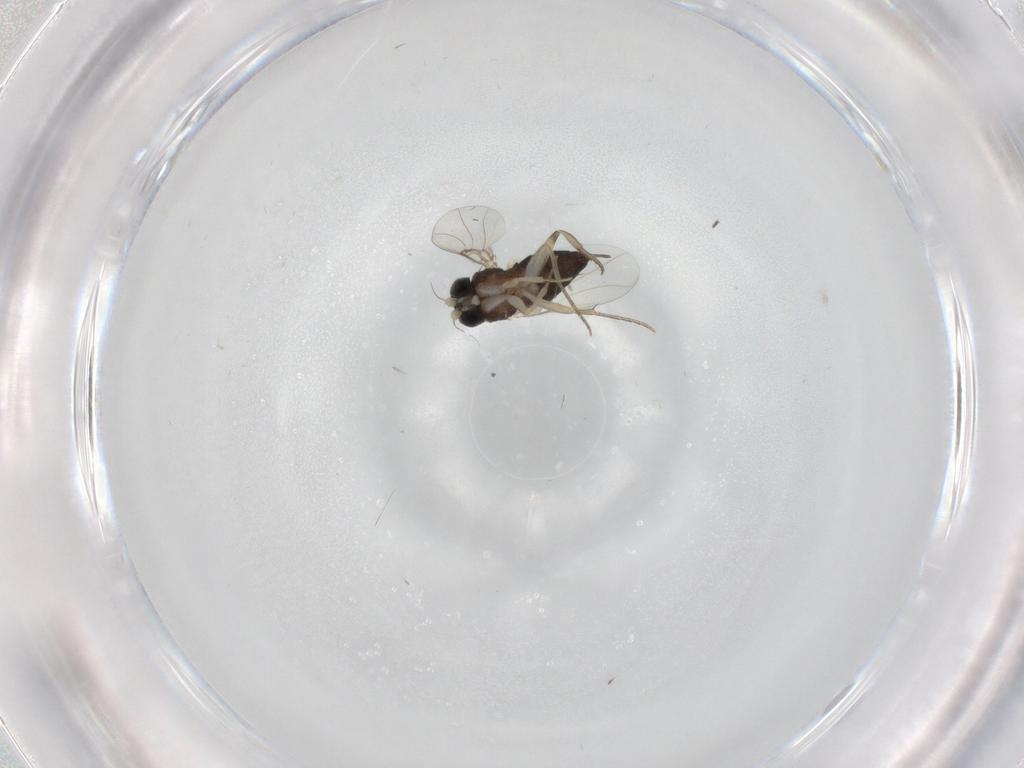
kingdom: Animalia
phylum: Arthropoda
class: Insecta
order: Diptera
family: Phoridae
